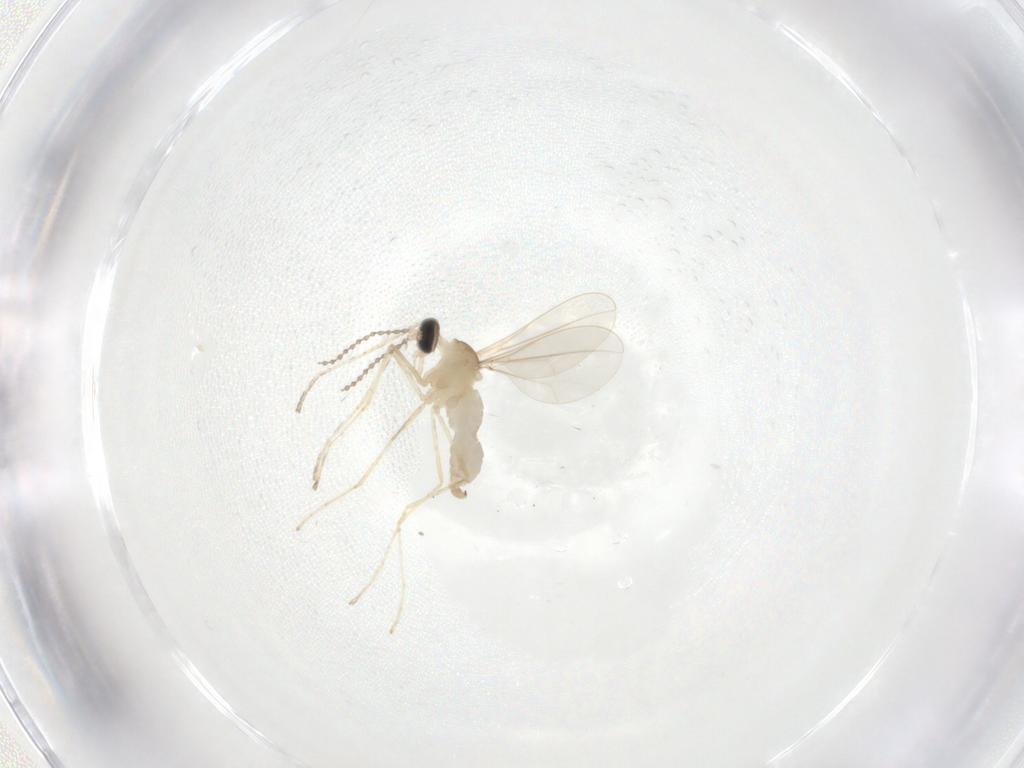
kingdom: Animalia
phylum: Arthropoda
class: Insecta
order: Diptera
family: Cecidomyiidae
